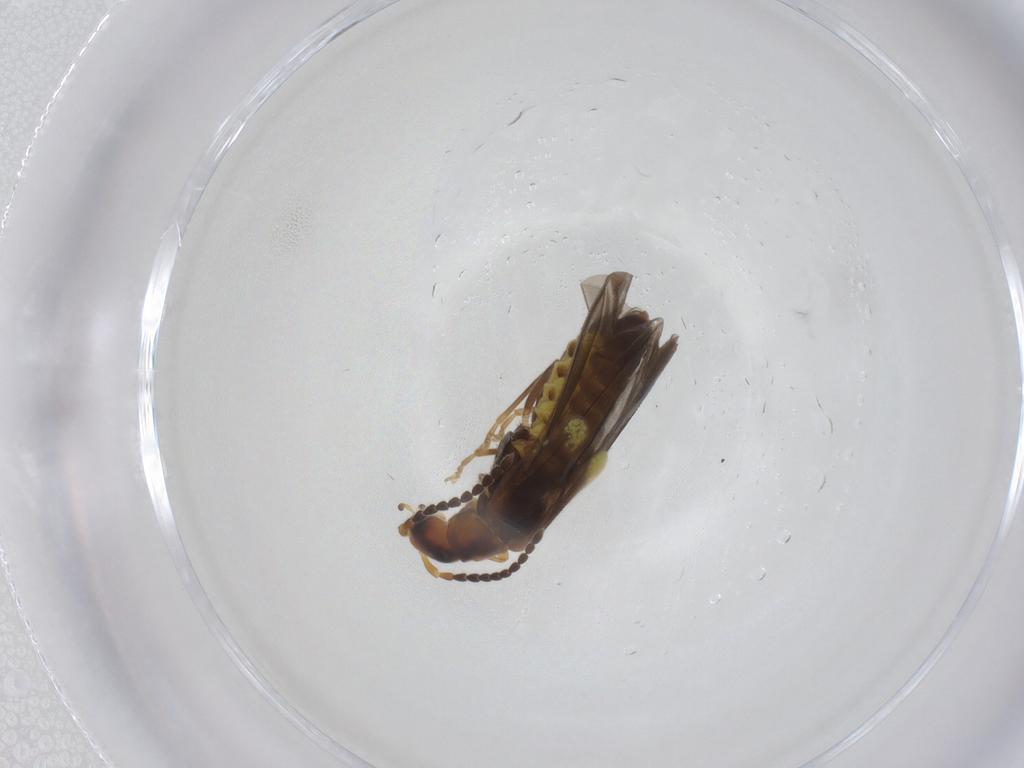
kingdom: Animalia
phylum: Arthropoda
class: Insecta
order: Coleoptera
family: Cantharidae
